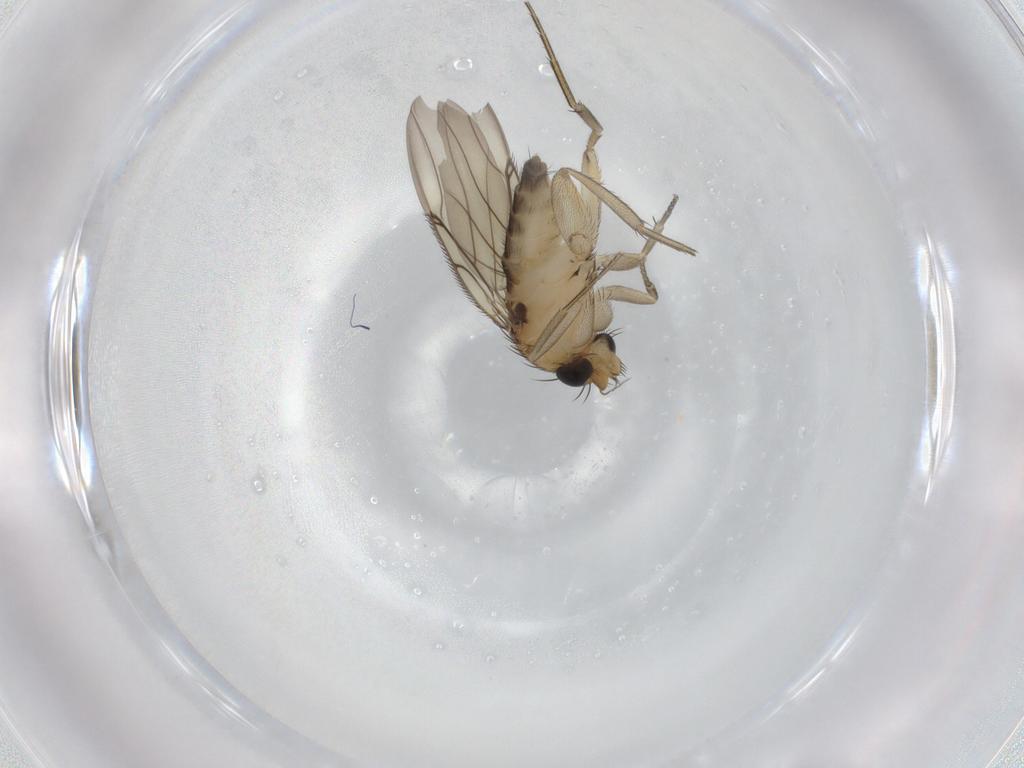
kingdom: Animalia
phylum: Arthropoda
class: Insecta
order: Diptera
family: Phoridae
